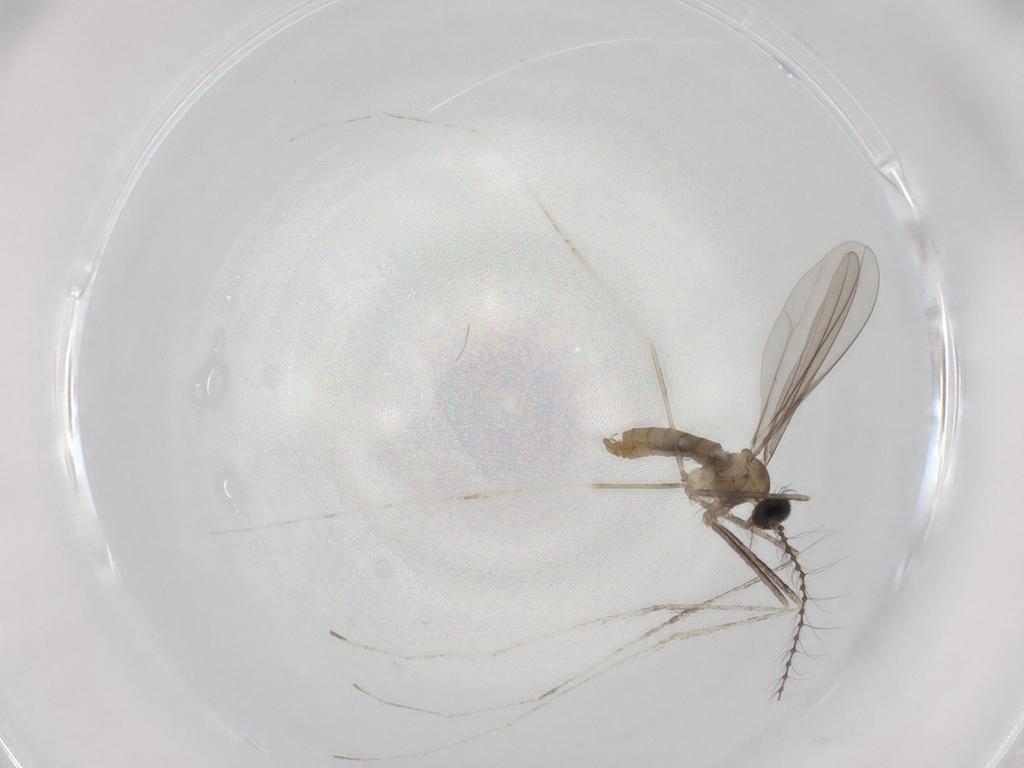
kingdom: Animalia
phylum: Arthropoda
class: Insecta
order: Diptera
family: Cecidomyiidae
